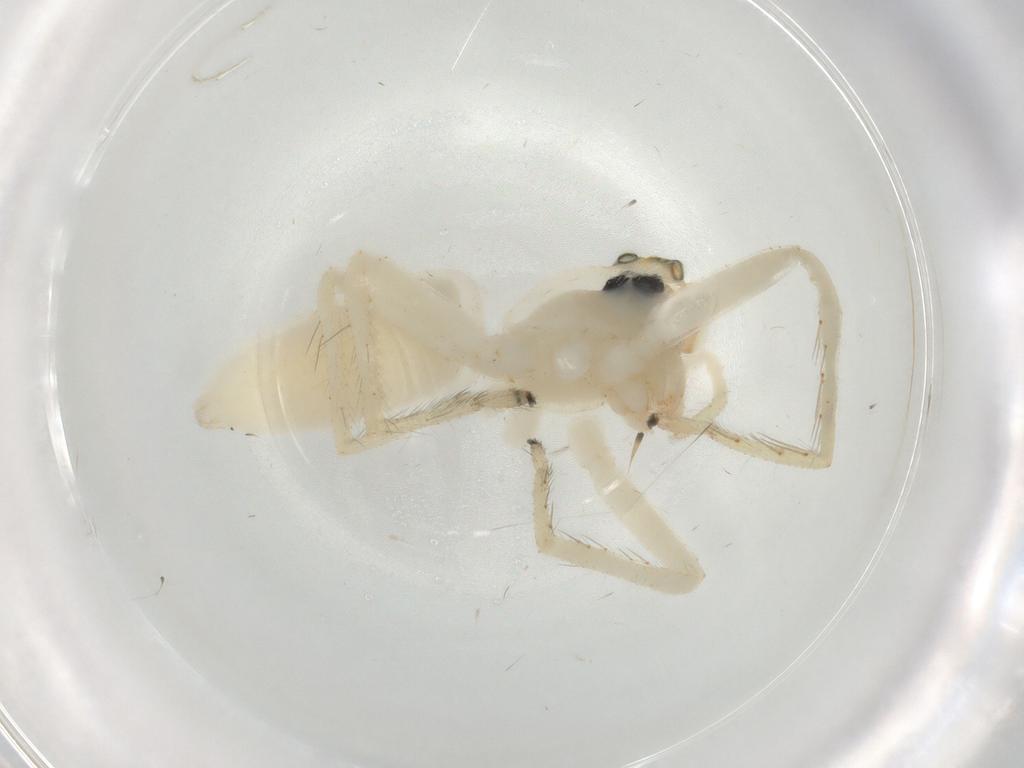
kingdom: Animalia
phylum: Arthropoda
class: Arachnida
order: Araneae
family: Salticidae
